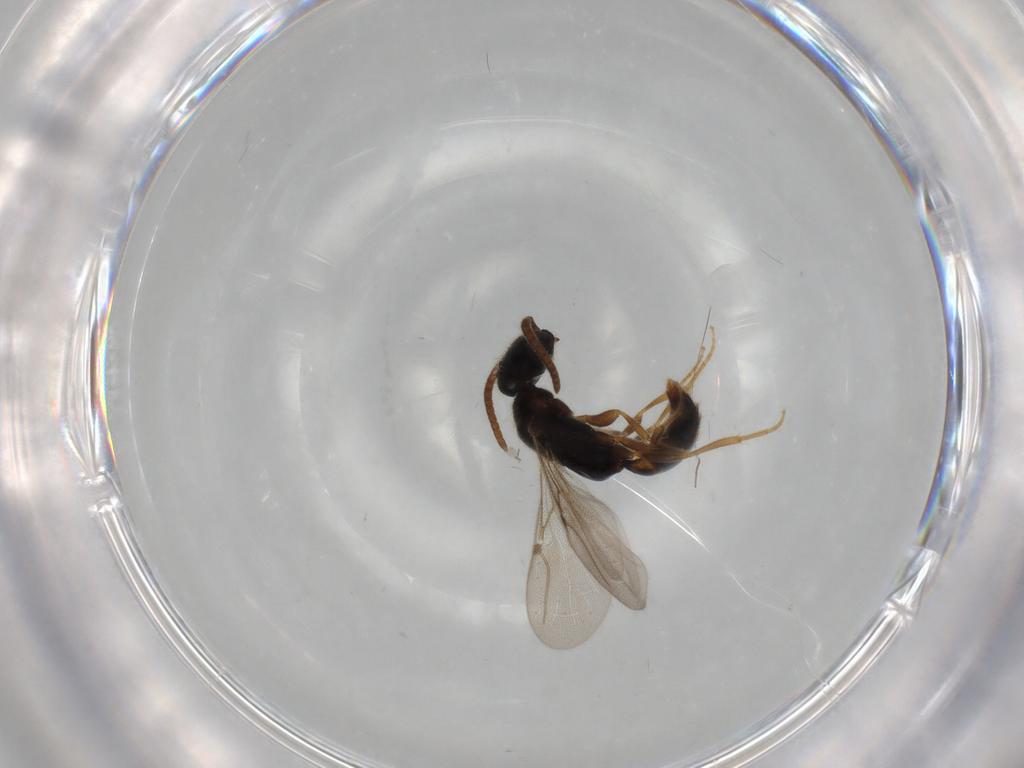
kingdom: Animalia
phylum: Arthropoda
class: Insecta
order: Hymenoptera
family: Bethylidae
